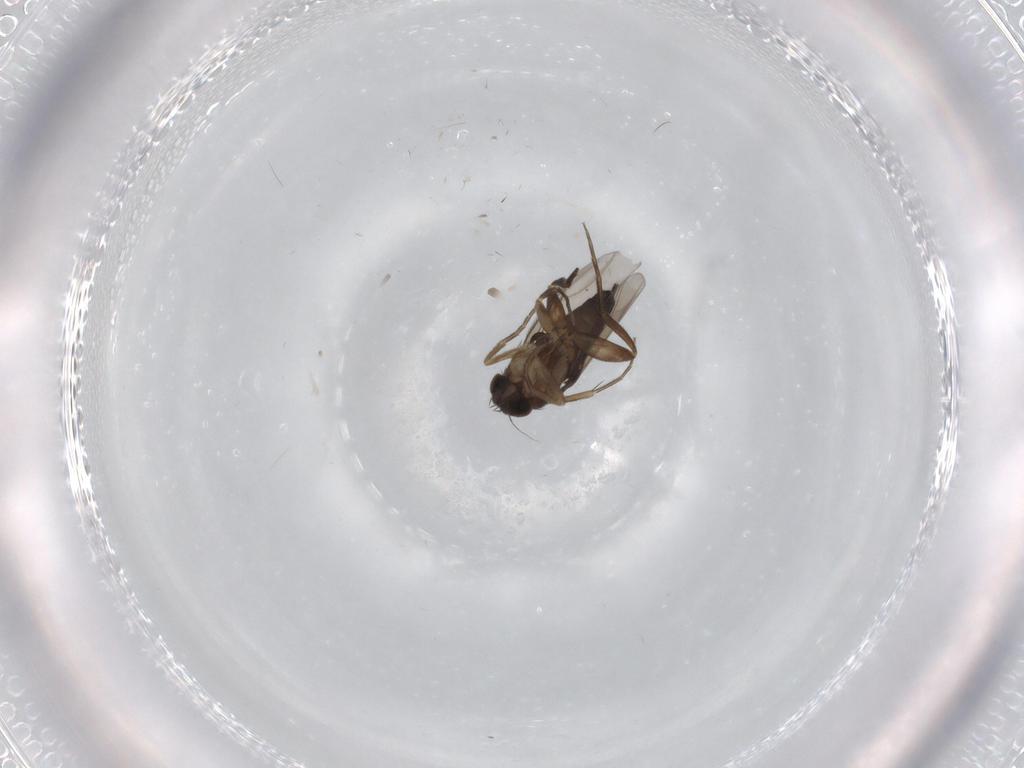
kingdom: Animalia
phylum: Arthropoda
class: Insecta
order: Diptera
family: Phoridae
